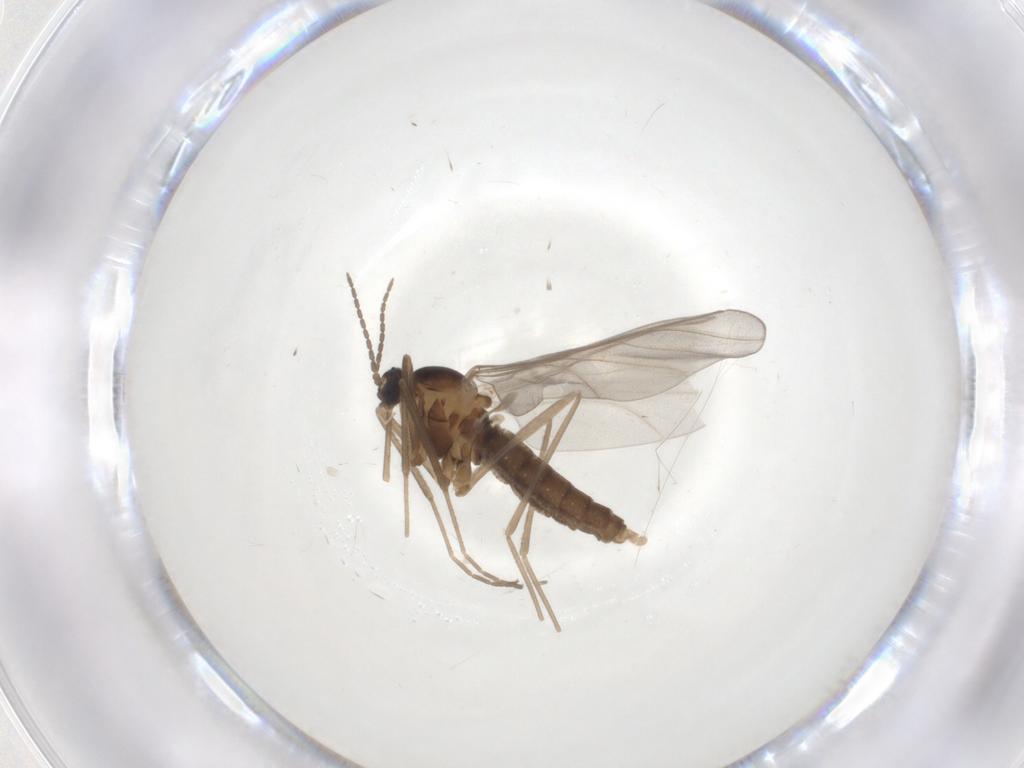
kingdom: Animalia
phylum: Arthropoda
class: Insecta
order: Diptera
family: Cecidomyiidae
